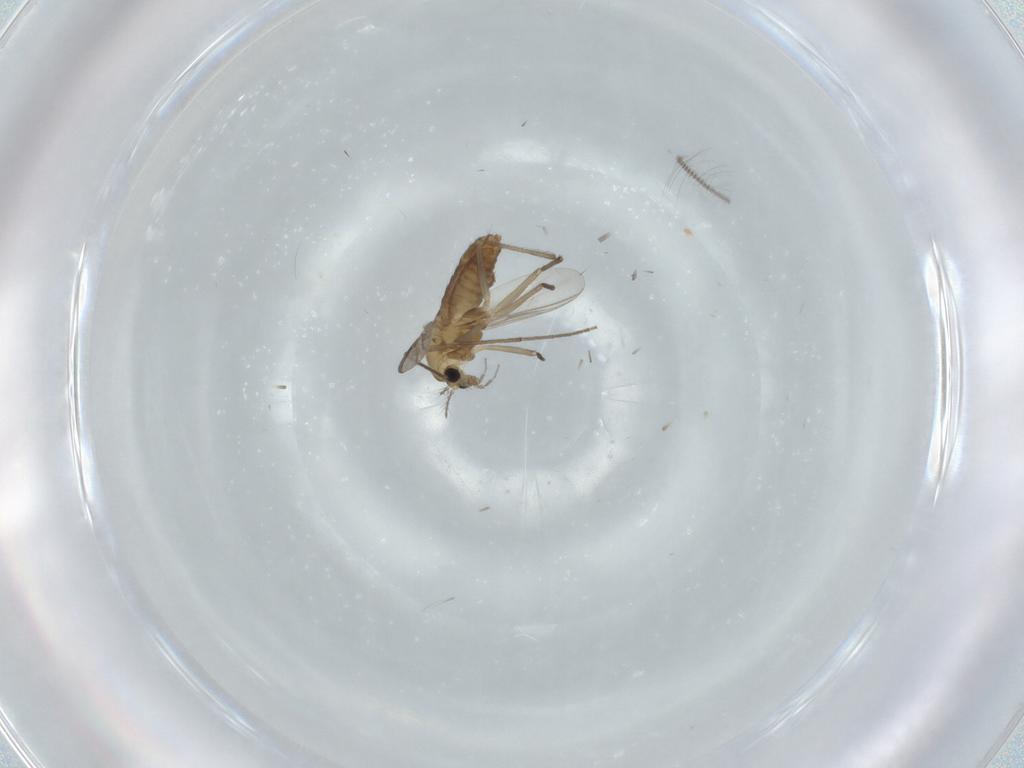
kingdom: Animalia
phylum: Arthropoda
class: Insecta
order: Diptera
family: Chironomidae
